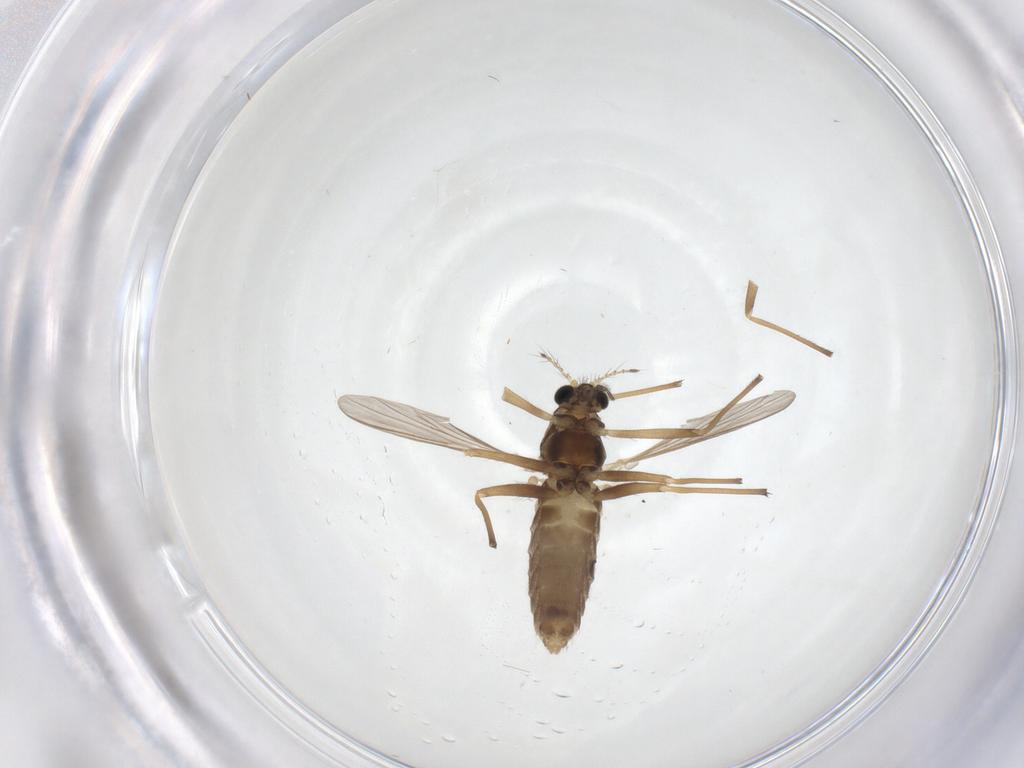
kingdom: Animalia
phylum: Arthropoda
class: Insecta
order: Diptera
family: Chironomidae
